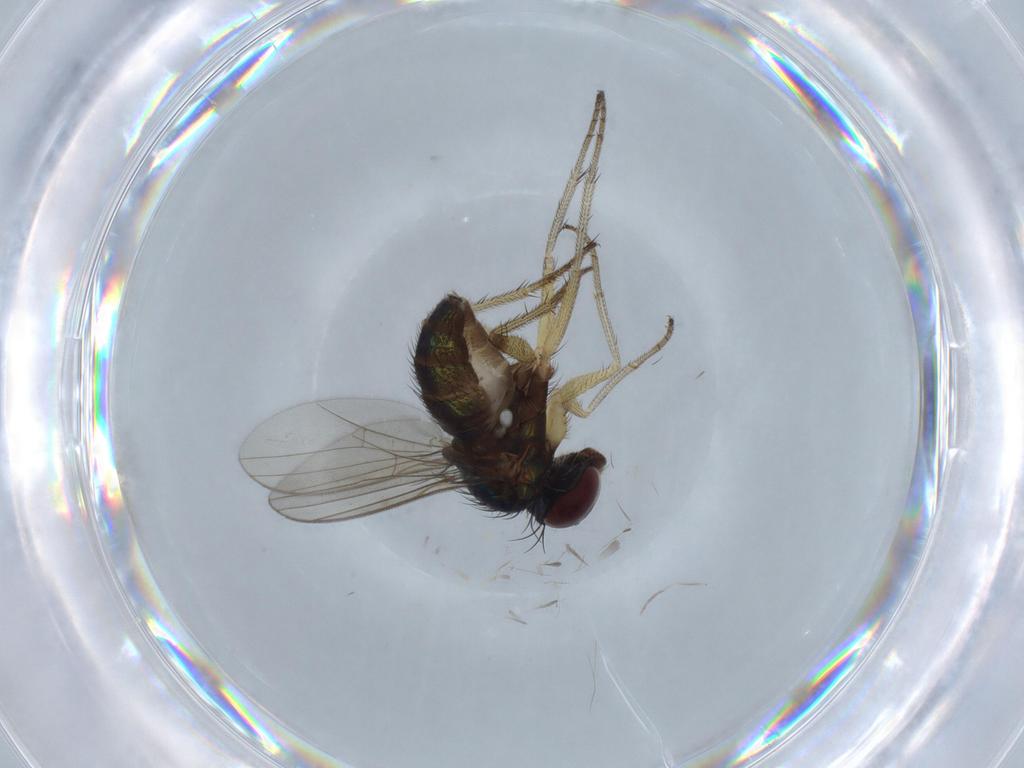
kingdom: Animalia
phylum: Arthropoda
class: Insecta
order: Diptera
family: Chironomidae
